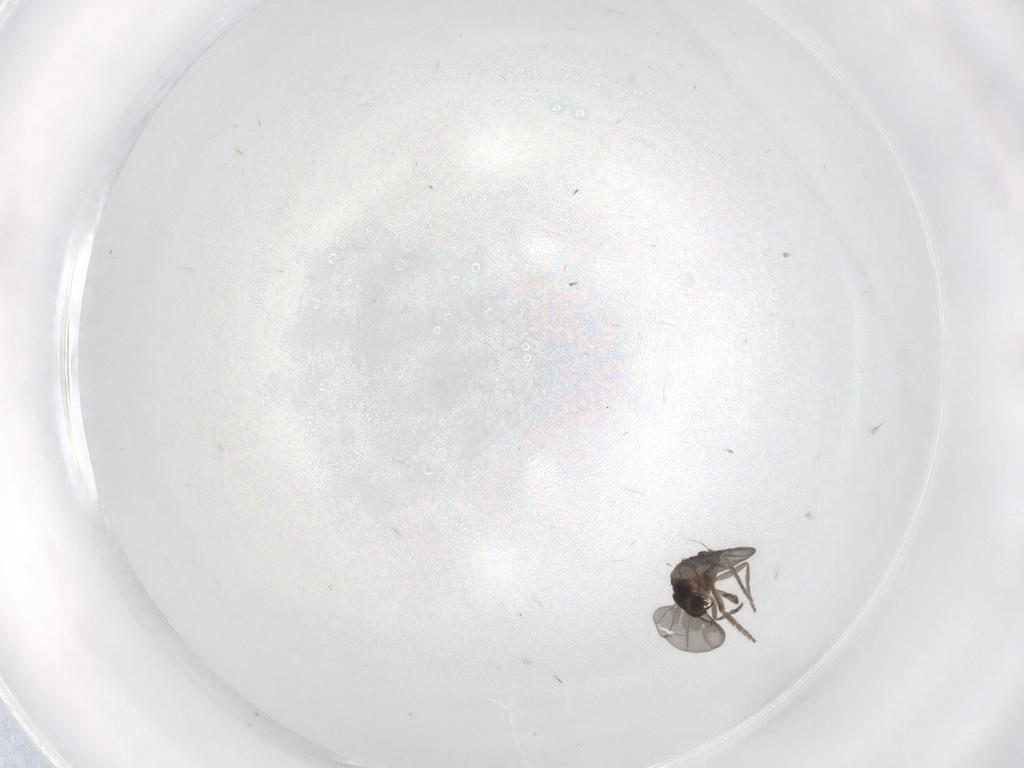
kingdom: Animalia
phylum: Arthropoda
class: Insecta
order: Diptera
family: Phoridae
